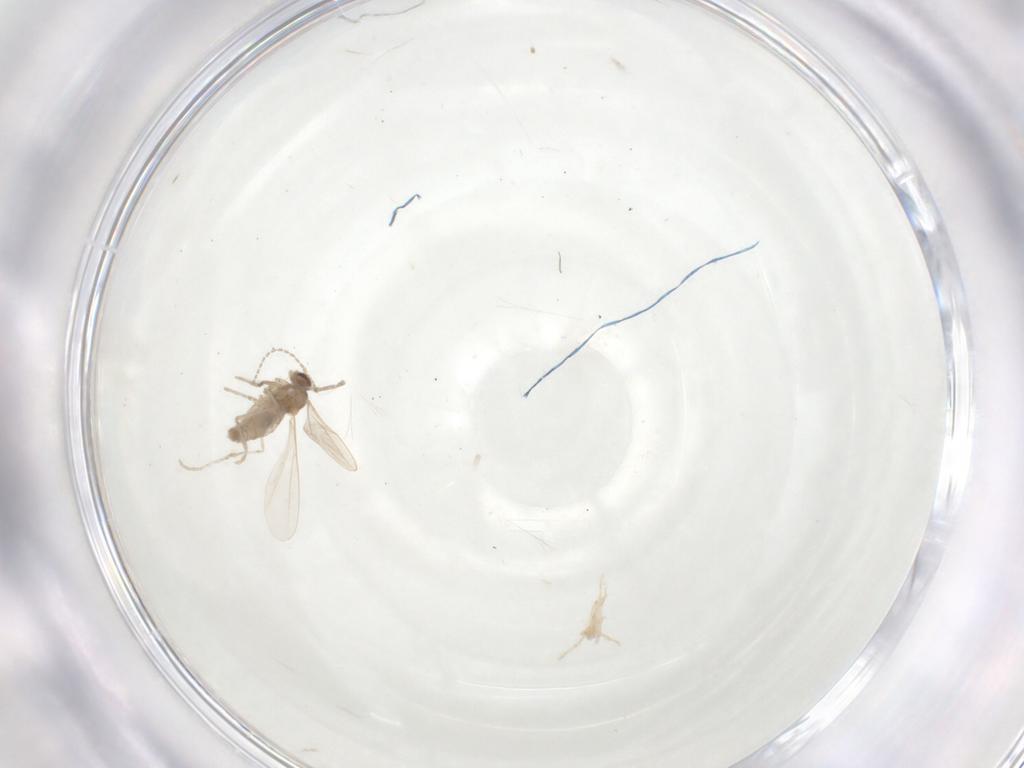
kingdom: Animalia
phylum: Arthropoda
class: Insecta
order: Diptera
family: Cecidomyiidae
